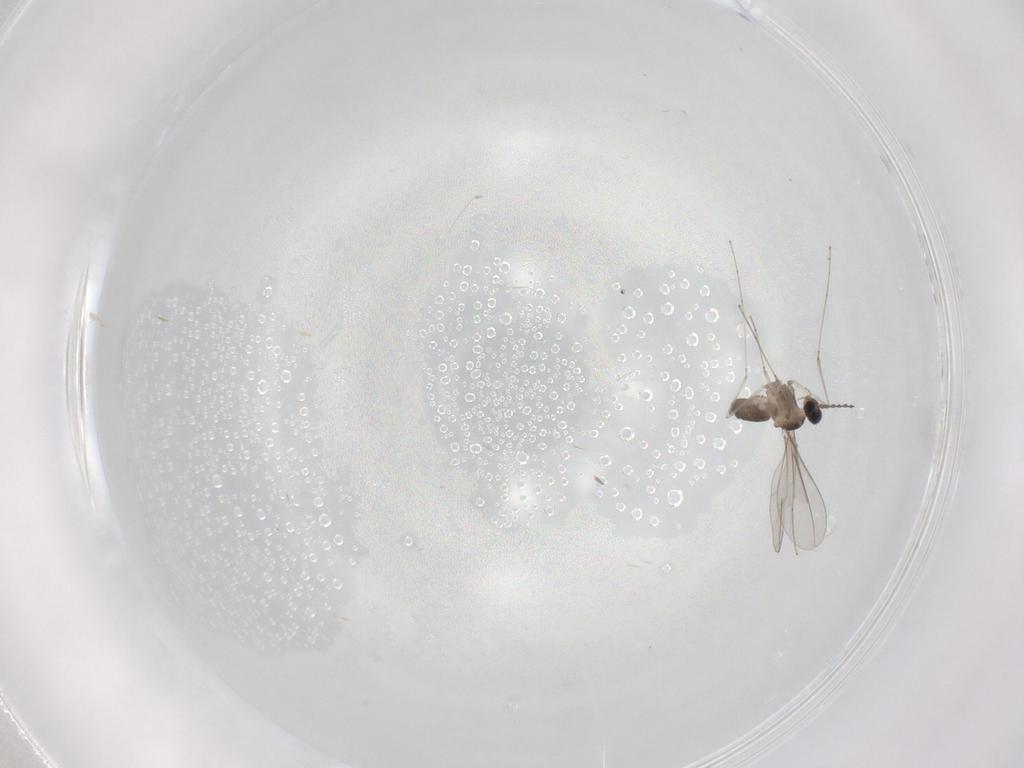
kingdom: Animalia
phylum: Arthropoda
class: Insecta
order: Diptera
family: Cecidomyiidae
